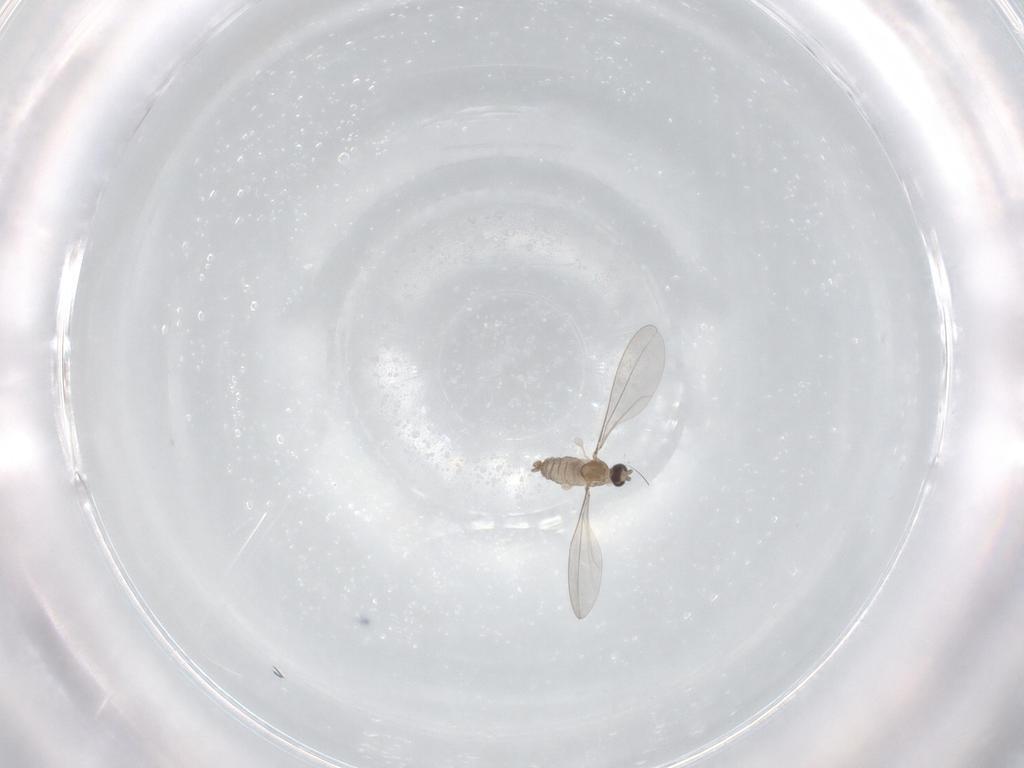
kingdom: Animalia
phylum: Arthropoda
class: Insecta
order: Diptera
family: Cecidomyiidae
